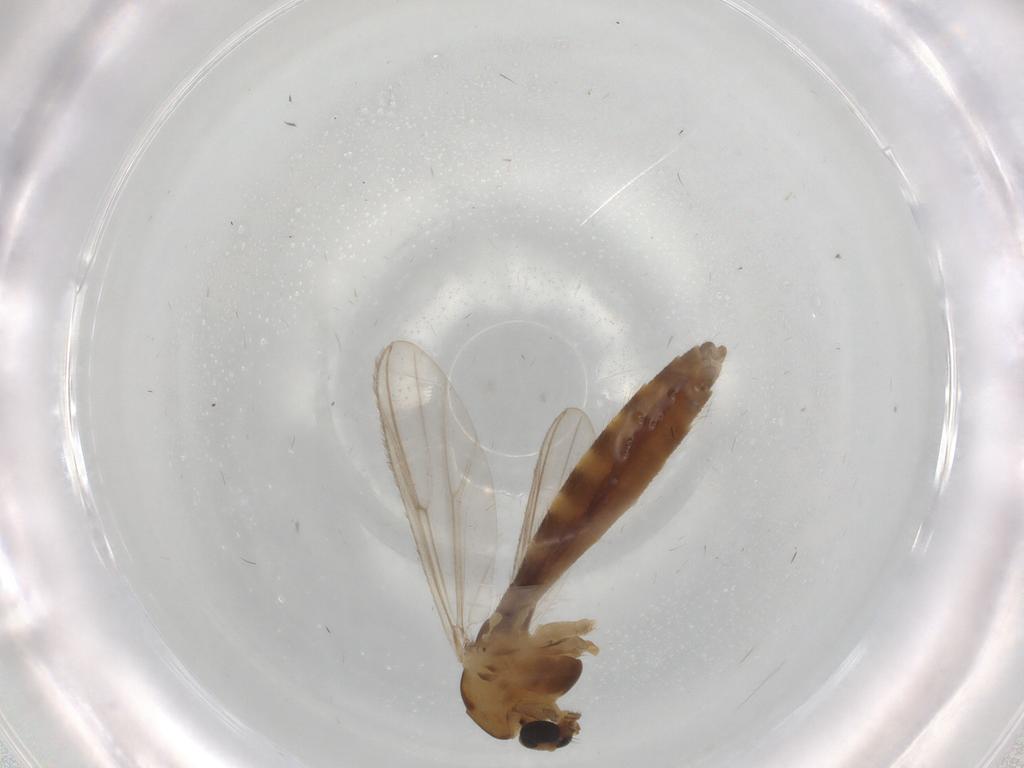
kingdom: Animalia
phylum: Arthropoda
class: Insecta
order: Diptera
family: Chironomidae
